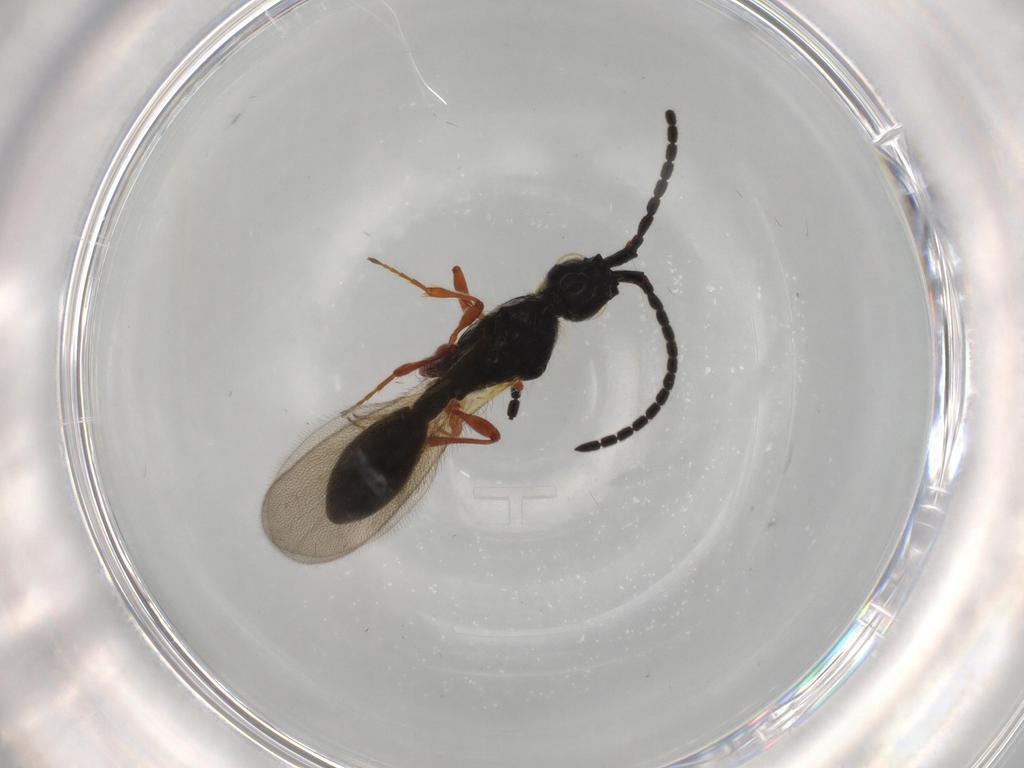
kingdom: Animalia
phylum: Arthropoda
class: Insecta
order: Hymenoptera
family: Diapriidae
